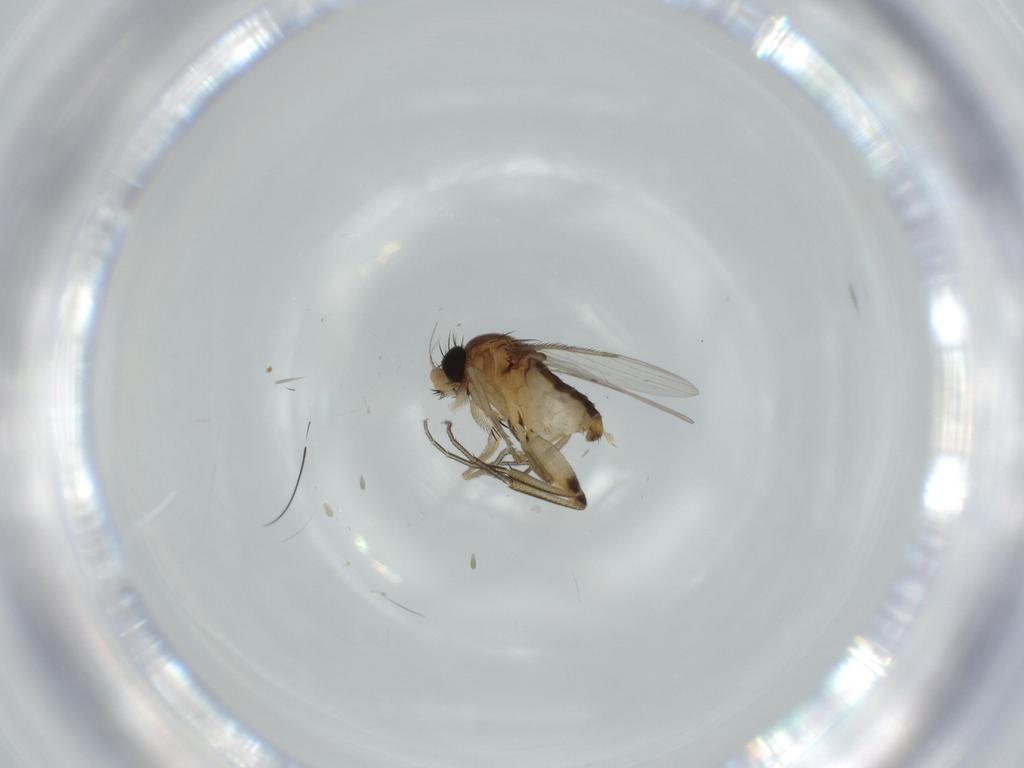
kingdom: Animalia
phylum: Arthropoda
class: Insecta
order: Diptera
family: Phoridae
